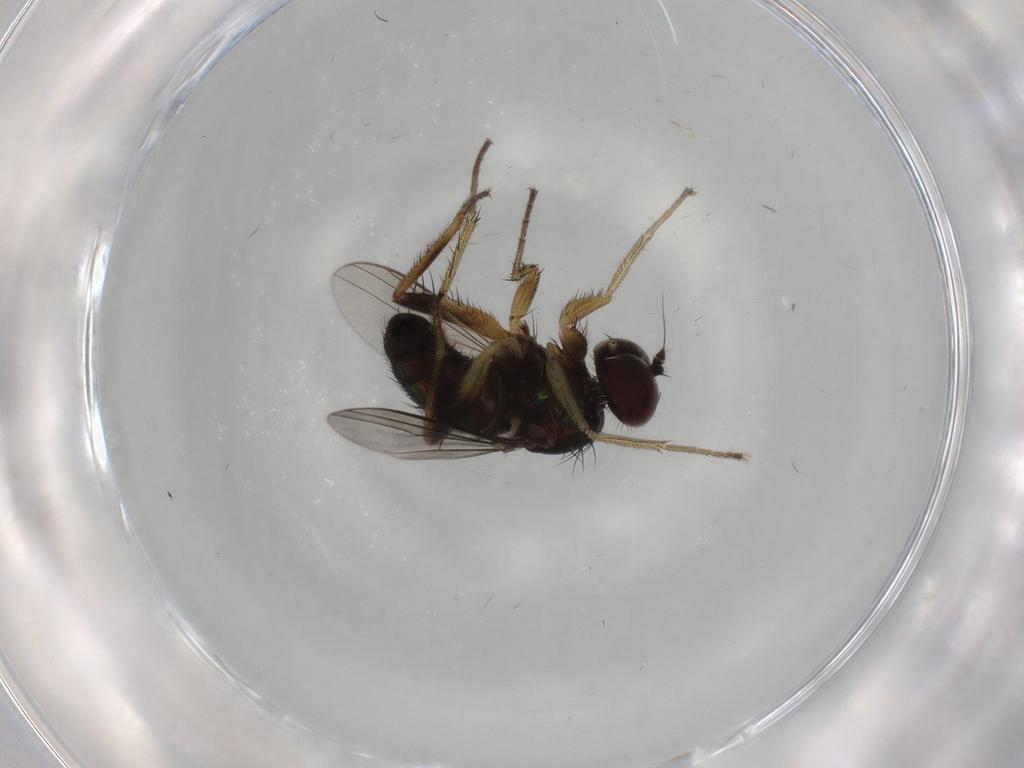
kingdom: Animalia
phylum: Arthropoda
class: Insecta
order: Diptera
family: Dolichopodidae
